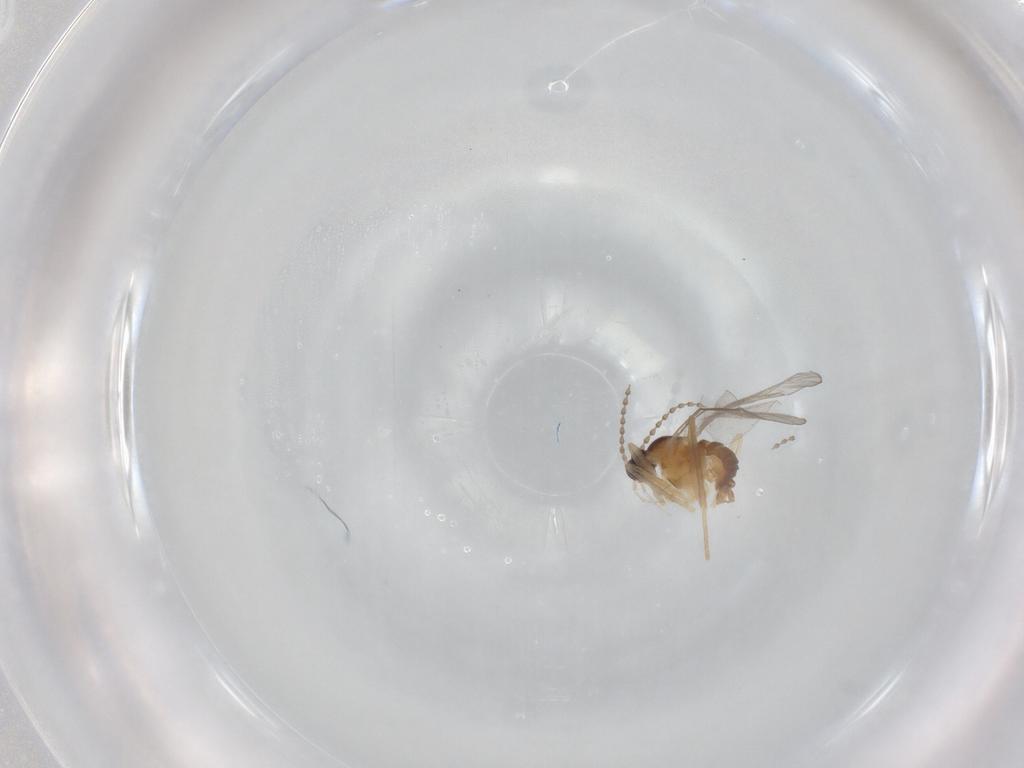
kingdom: Animalia
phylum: Arthropoda
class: Insecta
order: Diptera
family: Cecidomyiidae
